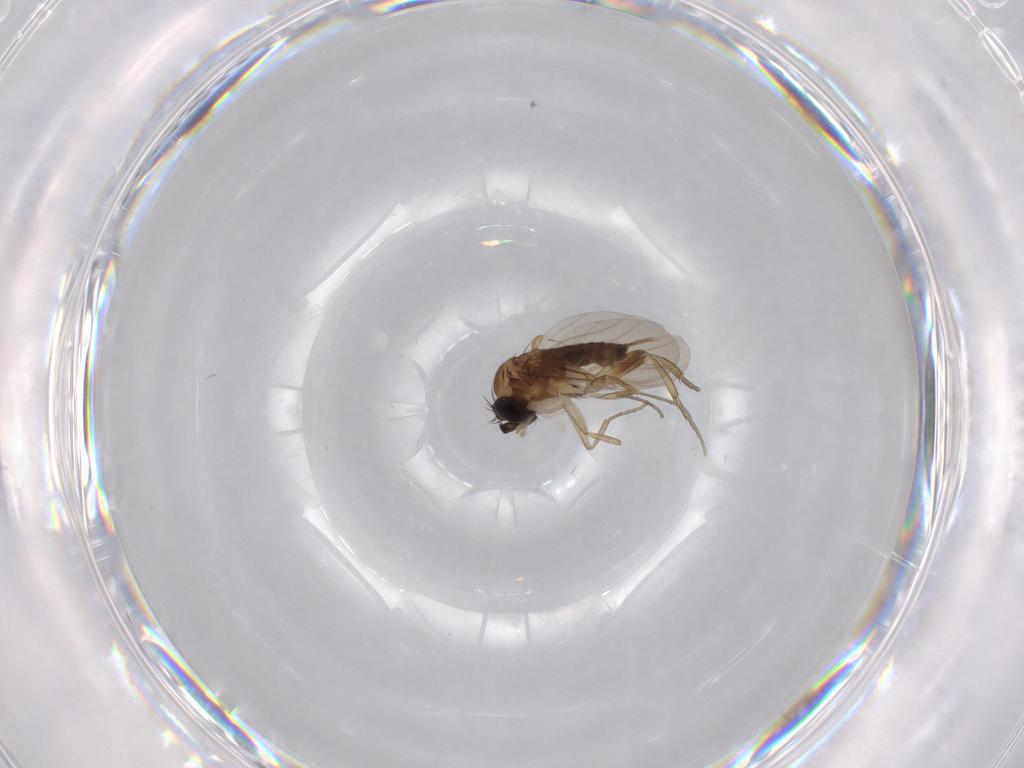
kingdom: Animalia
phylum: Arthropoda
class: Insecta
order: Diptera
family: Phoridae
